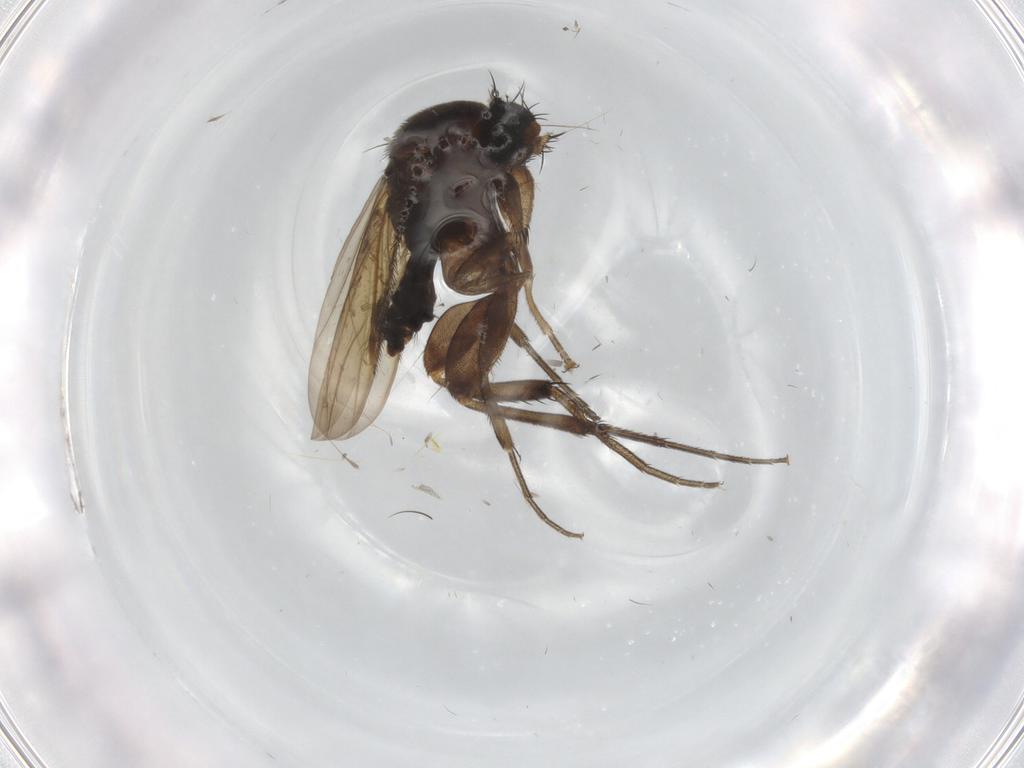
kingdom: Animalia
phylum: Arthropoda
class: Insecta
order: Diptera
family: Phoridae
